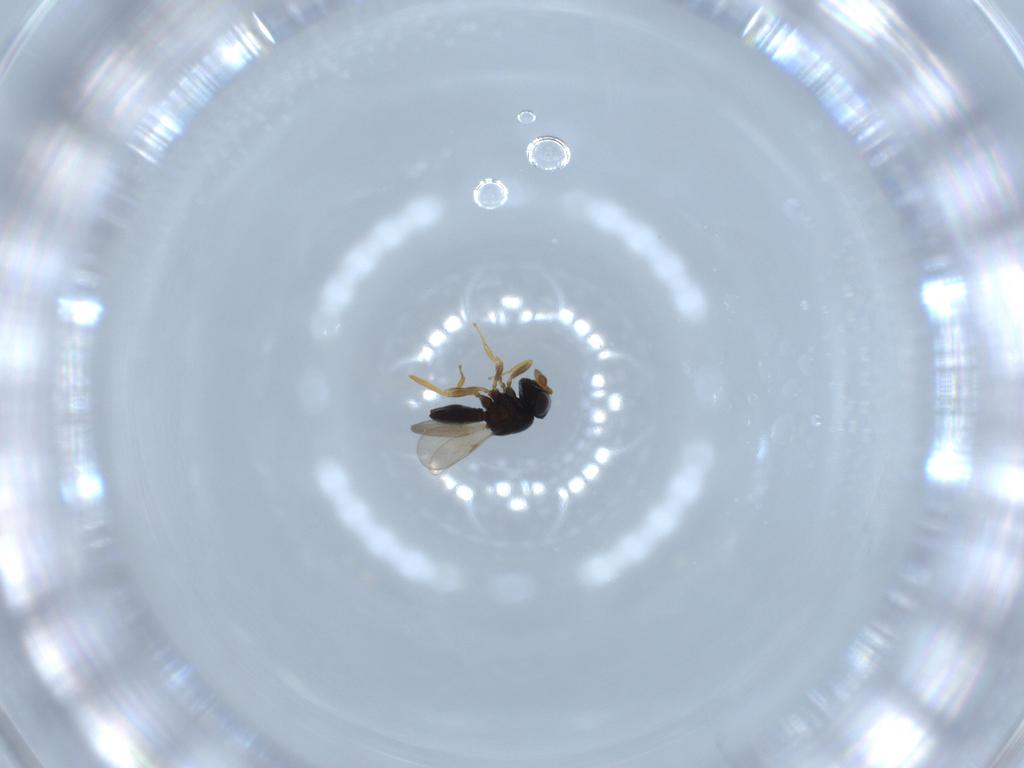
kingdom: Animalia
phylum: Arthropoda
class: Insecta
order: Hymenoptera
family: Scelionidae
